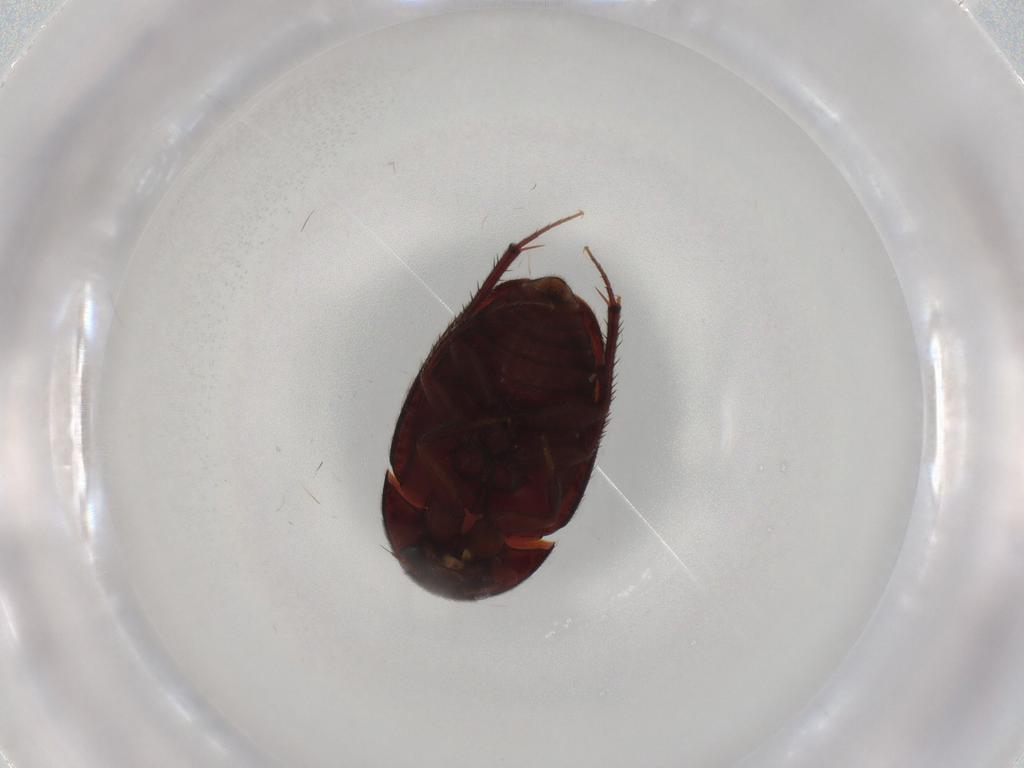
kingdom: Animalia
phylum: Arthropoda
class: Insecta
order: Coleoptera
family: Leiodidae
